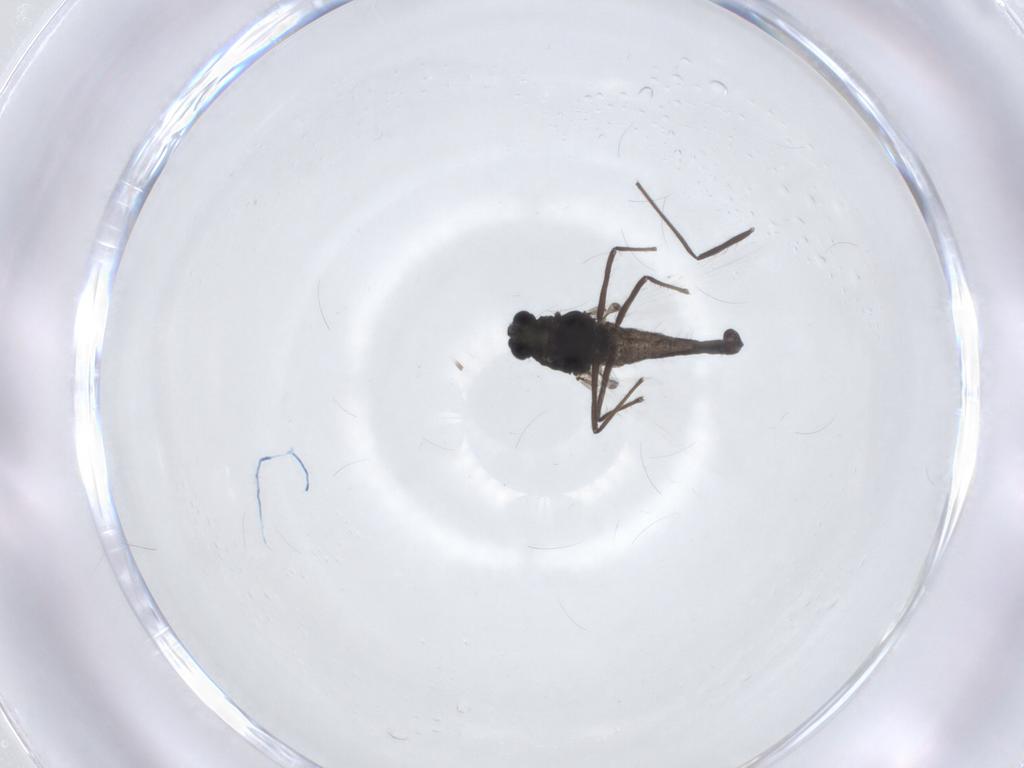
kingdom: Animalia
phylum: Arthropoda
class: Insecta
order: Diptera
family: Chironomidae
